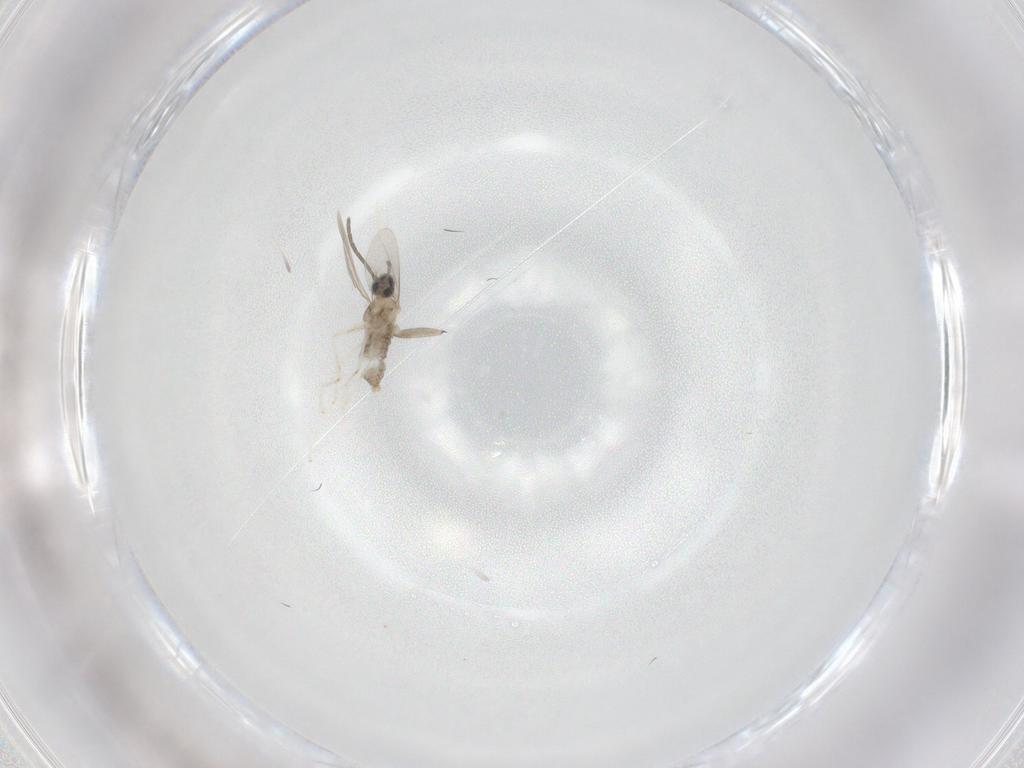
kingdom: Animalia
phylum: Arthropoda
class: Insecta
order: Diptera
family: Cecidomyiidae
